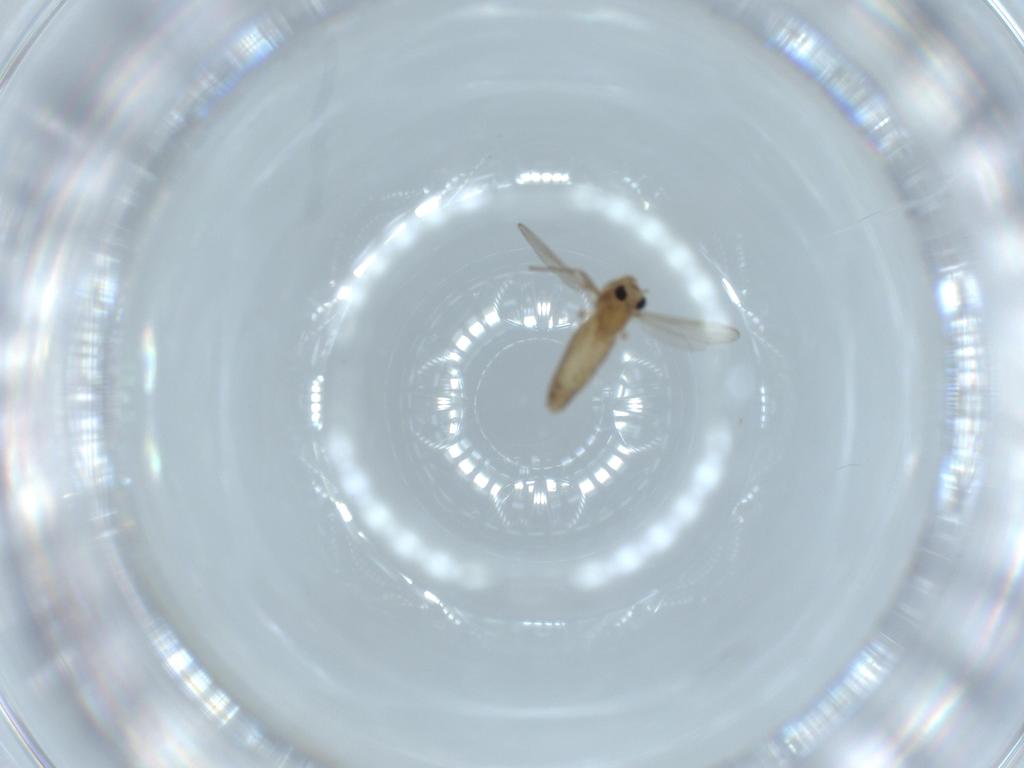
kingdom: Animalia
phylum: Arthropoda
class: Insecta
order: Diptera
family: Chironomidae
